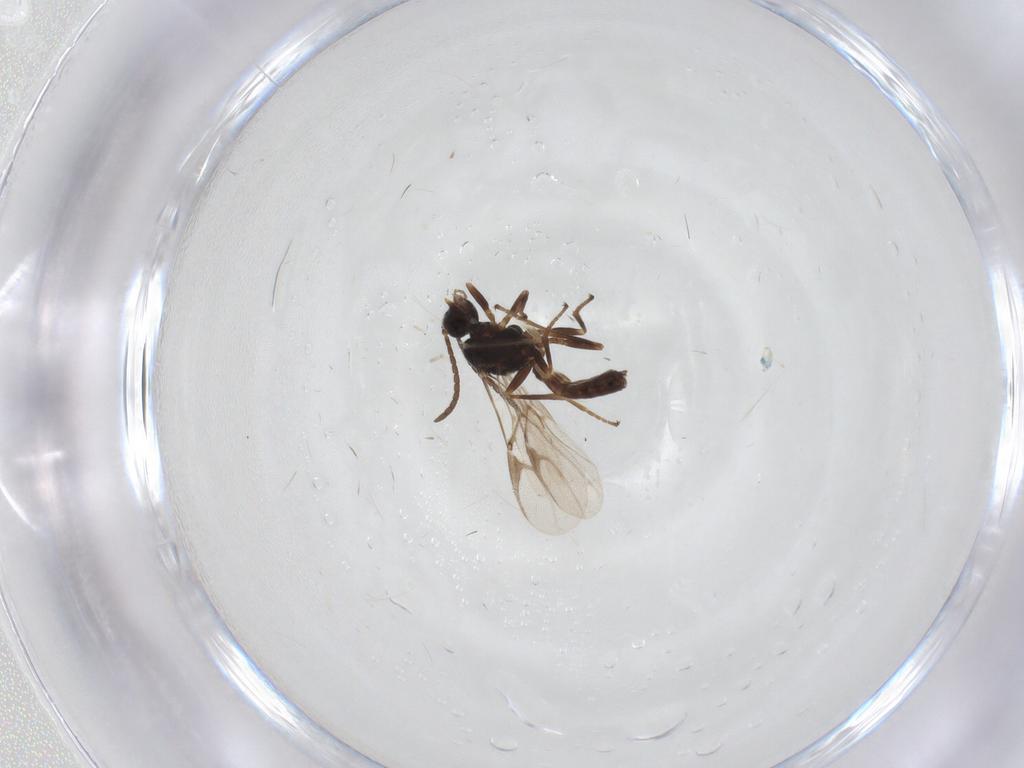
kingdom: Animalia
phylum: Arthropoda
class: Insecta
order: Hymenoptera
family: Braconidae
